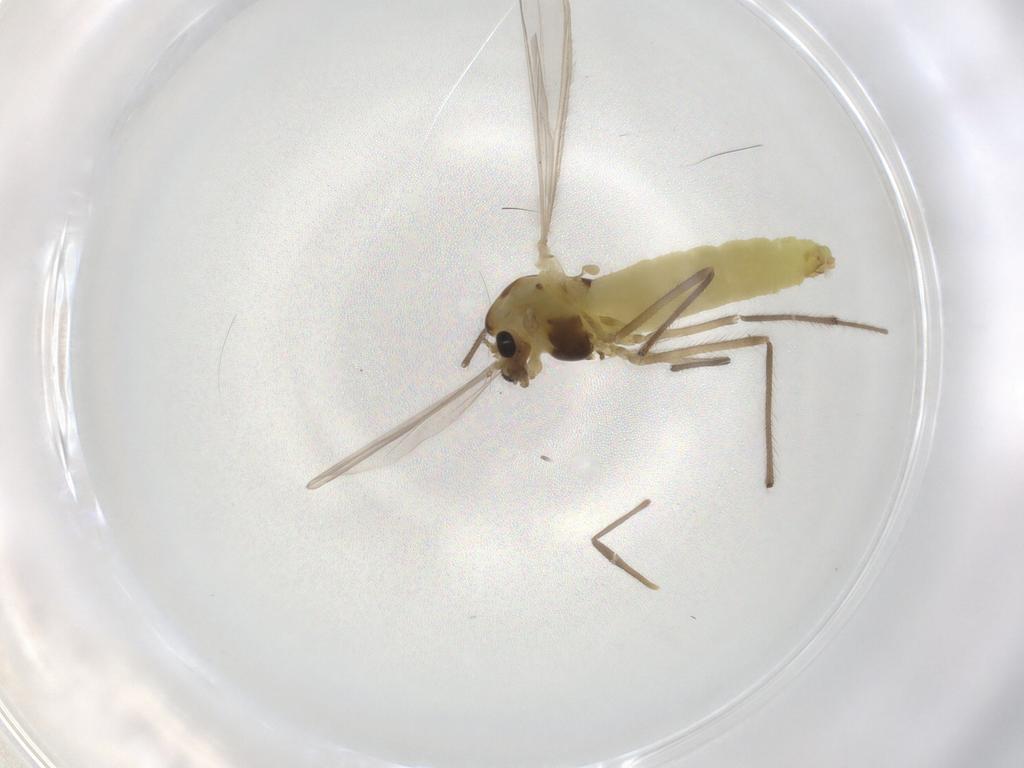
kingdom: Animalia
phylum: Arthropoda
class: Insecta
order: Diptera
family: Chironomidae
